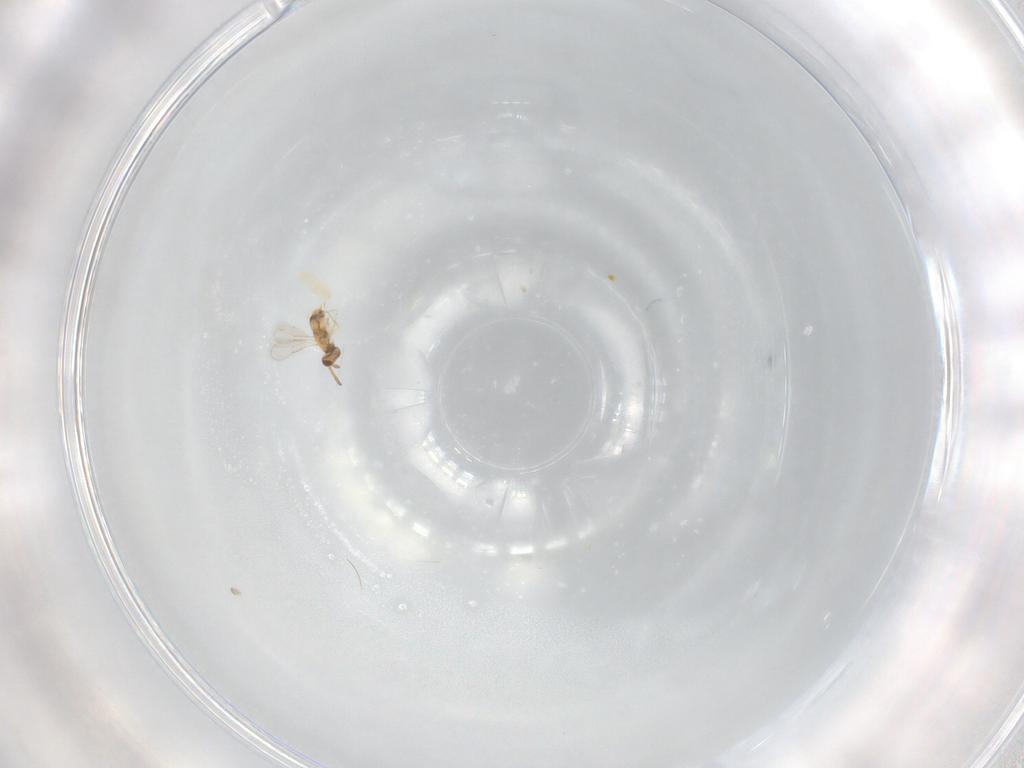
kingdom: Animalia
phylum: Arthropoda
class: Insecta
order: Hymenoptera
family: Aphelinidae
